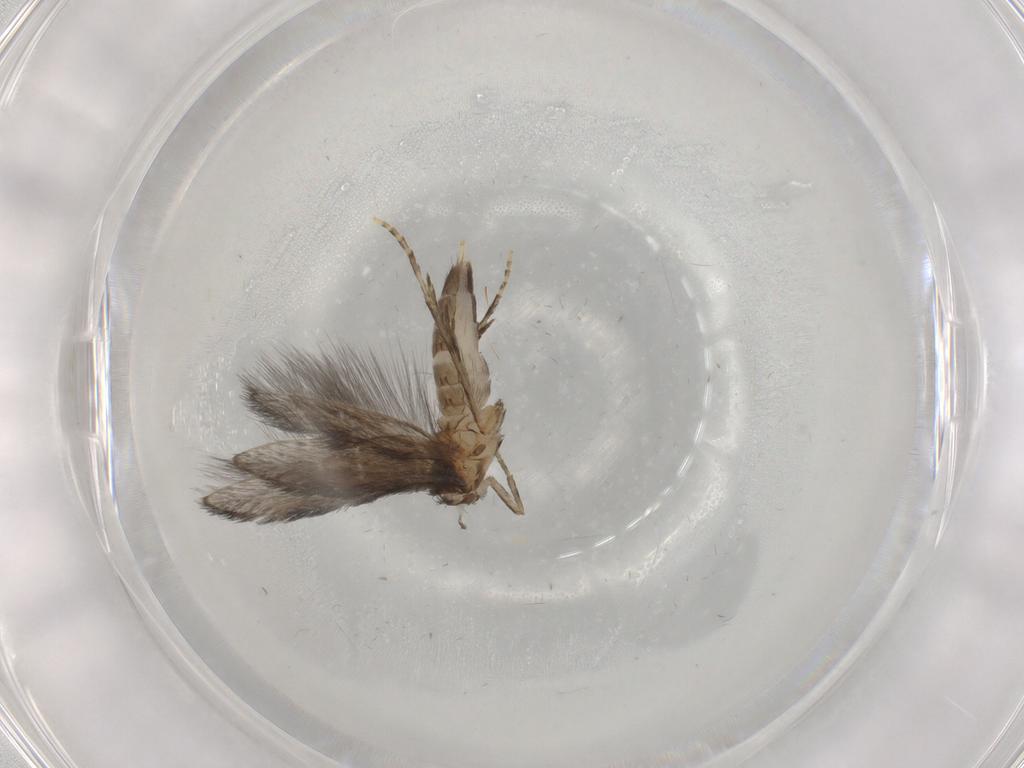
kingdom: Animalia
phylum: Arthropoda
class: Insecta
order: Trichoptera
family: Hydroptilidae
